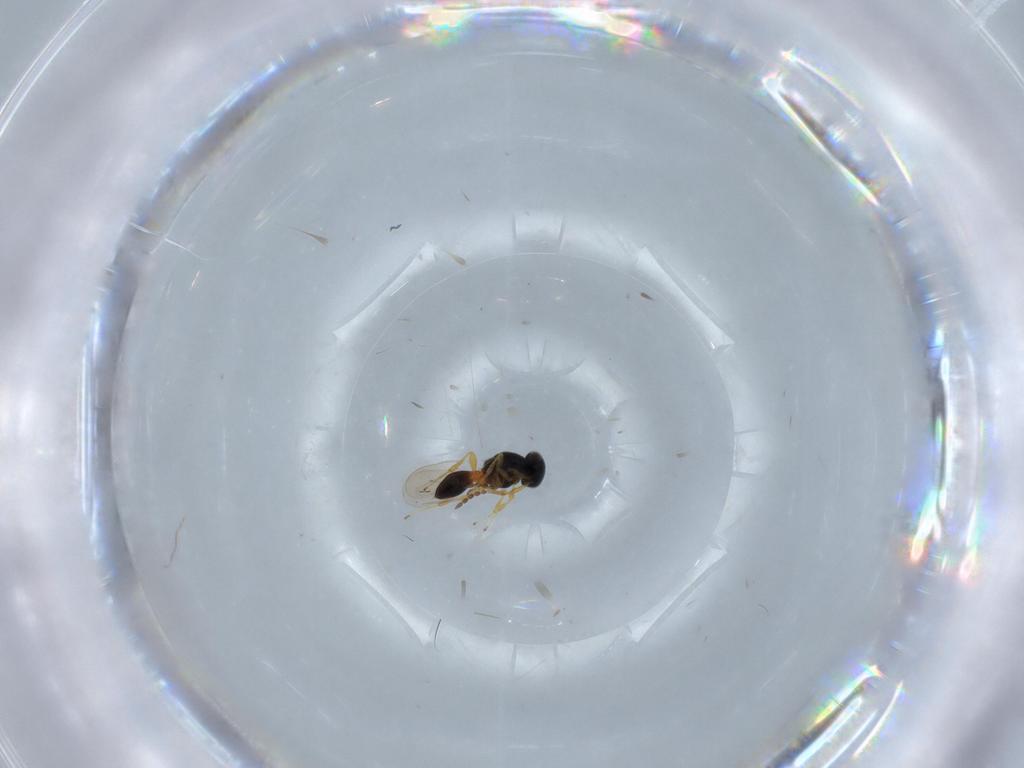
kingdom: Animalia
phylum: Arthropoda
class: Insecta
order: Hymenoptera
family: Platygastridae
